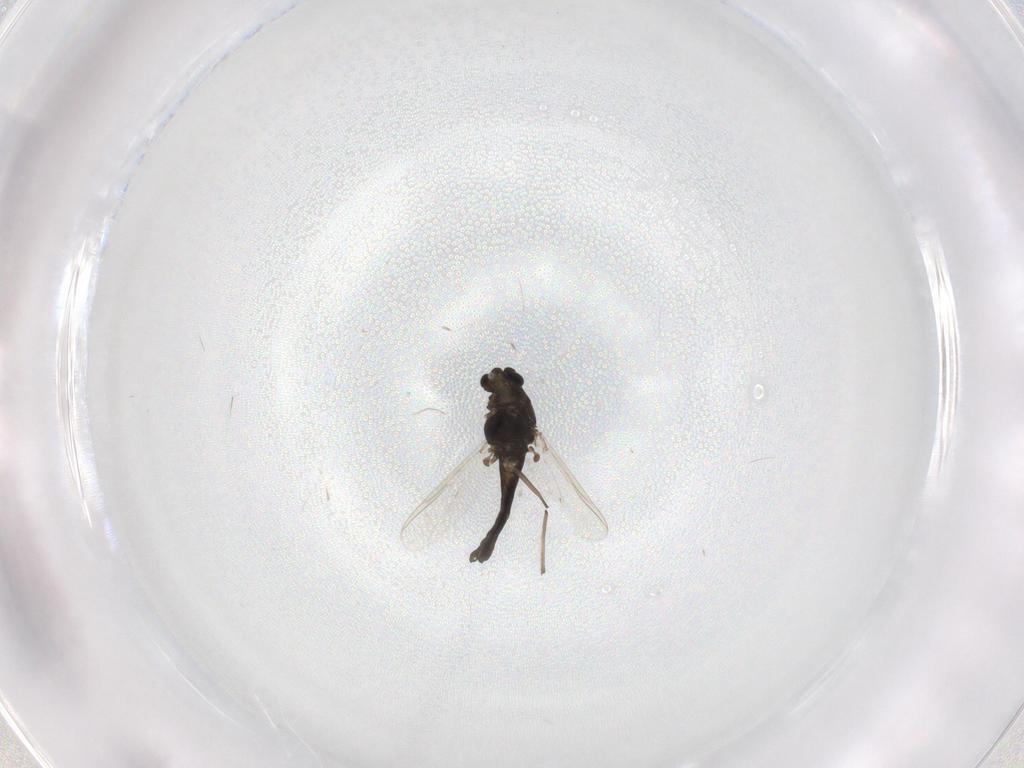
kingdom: Animalia
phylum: Arthropoda
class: Insecta
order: Diptera
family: Chironomidae
